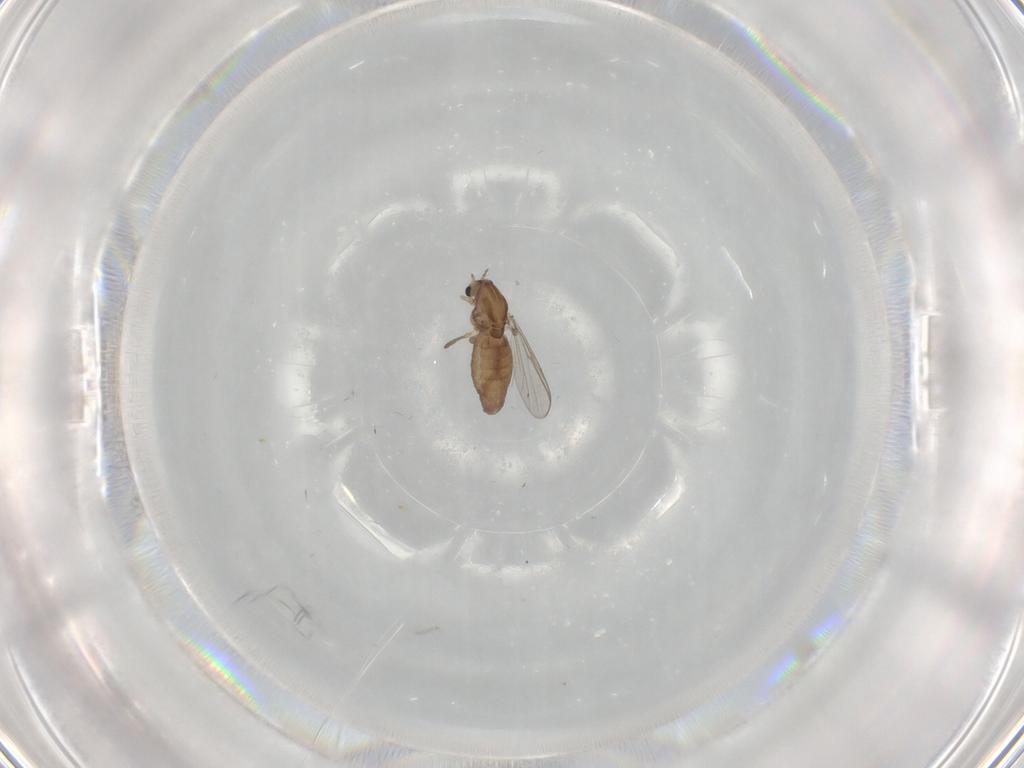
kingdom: Animalia
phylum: Arthropoda
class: Insecta
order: Diptera
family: Chironomidae
